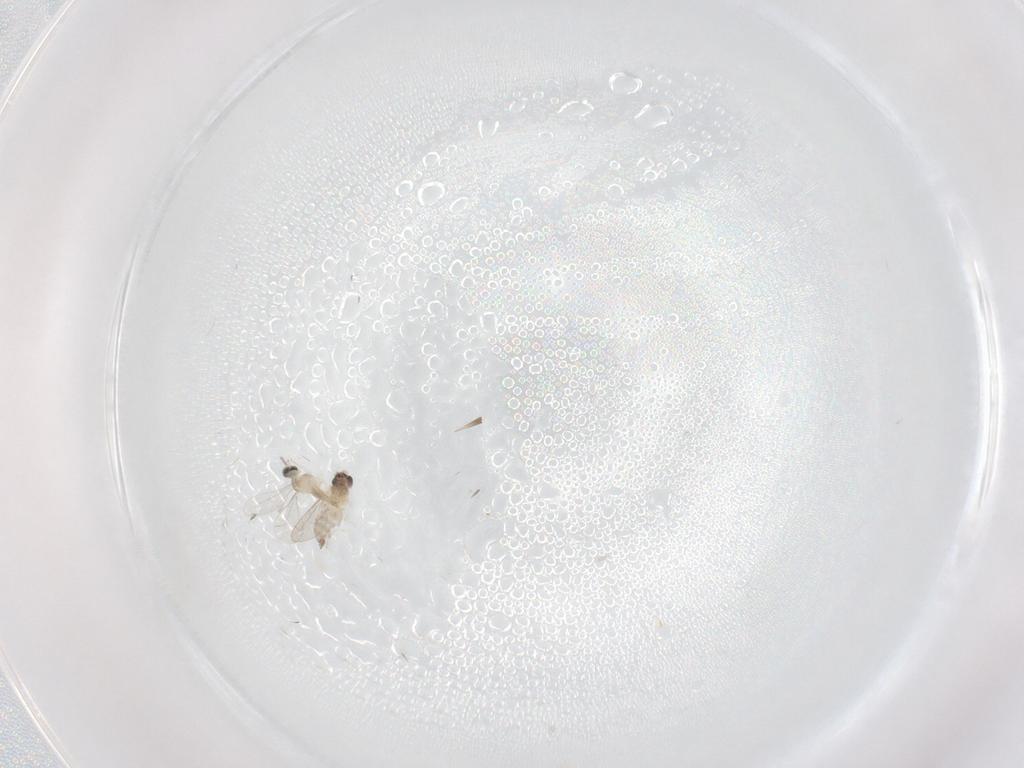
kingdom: Animalia
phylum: Arthropoda
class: Insecta
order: Diptera
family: Cecidomyiidae
